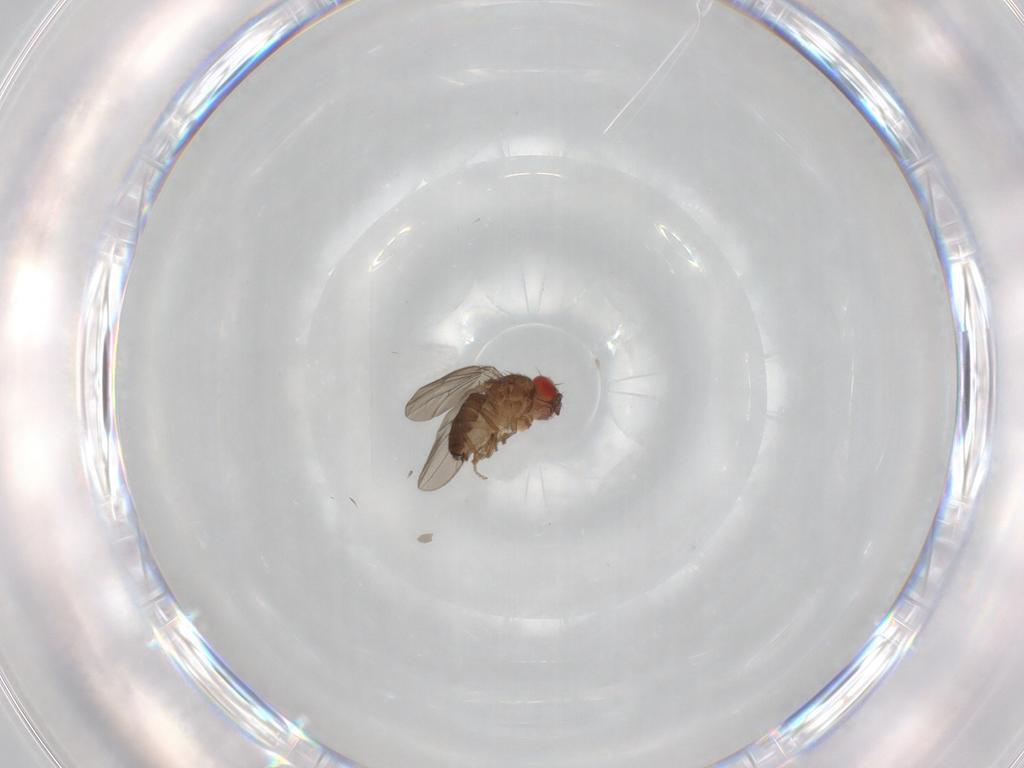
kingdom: Animalia
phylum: Arthropoda
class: Insecta
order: Diptera
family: Drosophilidae
